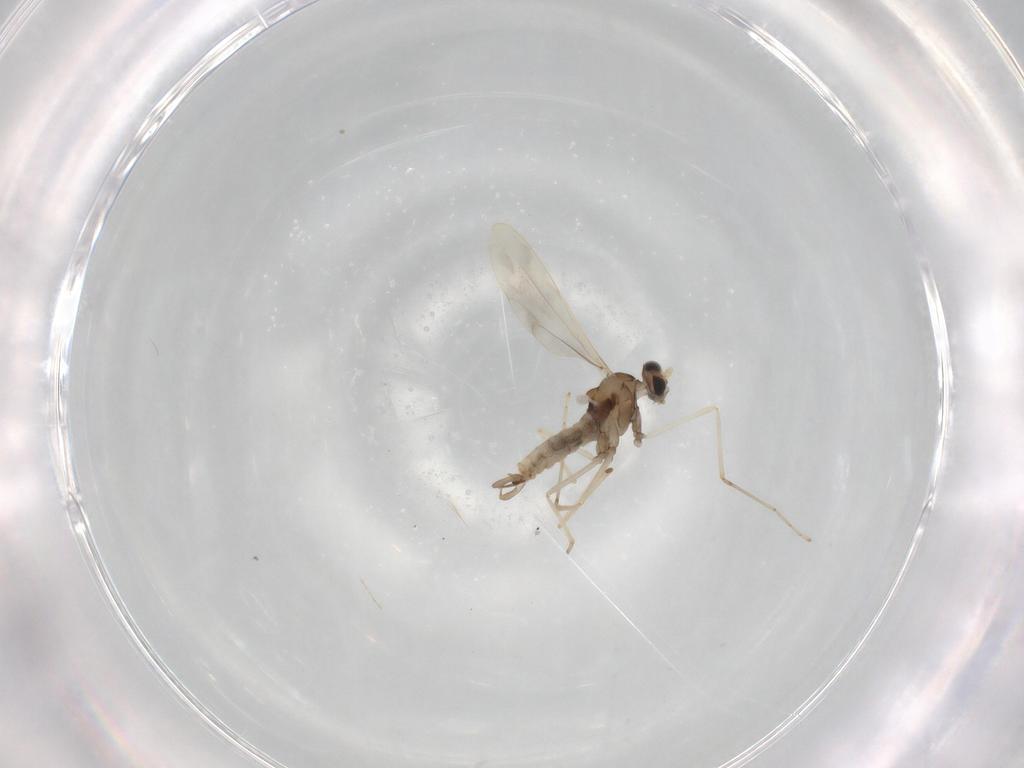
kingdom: Animalia
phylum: Arthropoda
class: Insecta
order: Diptera
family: Cecidomyiidae
